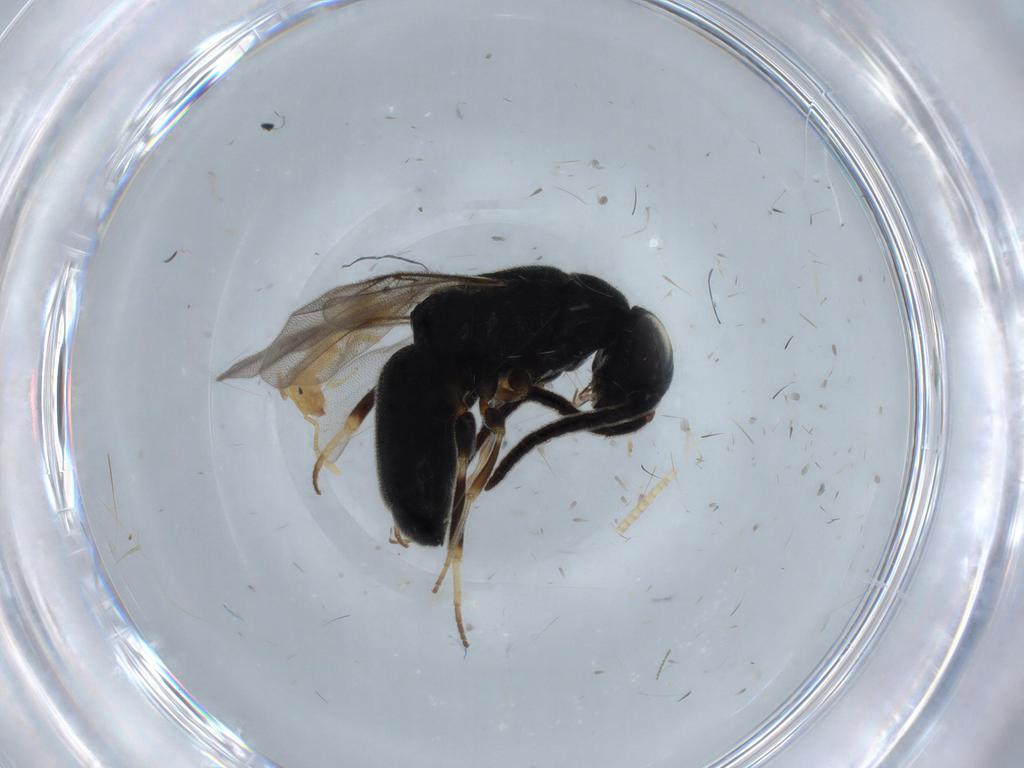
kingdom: Animalia
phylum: Arthropoda
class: Insecta
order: Hymenoptera
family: Chrysididae
